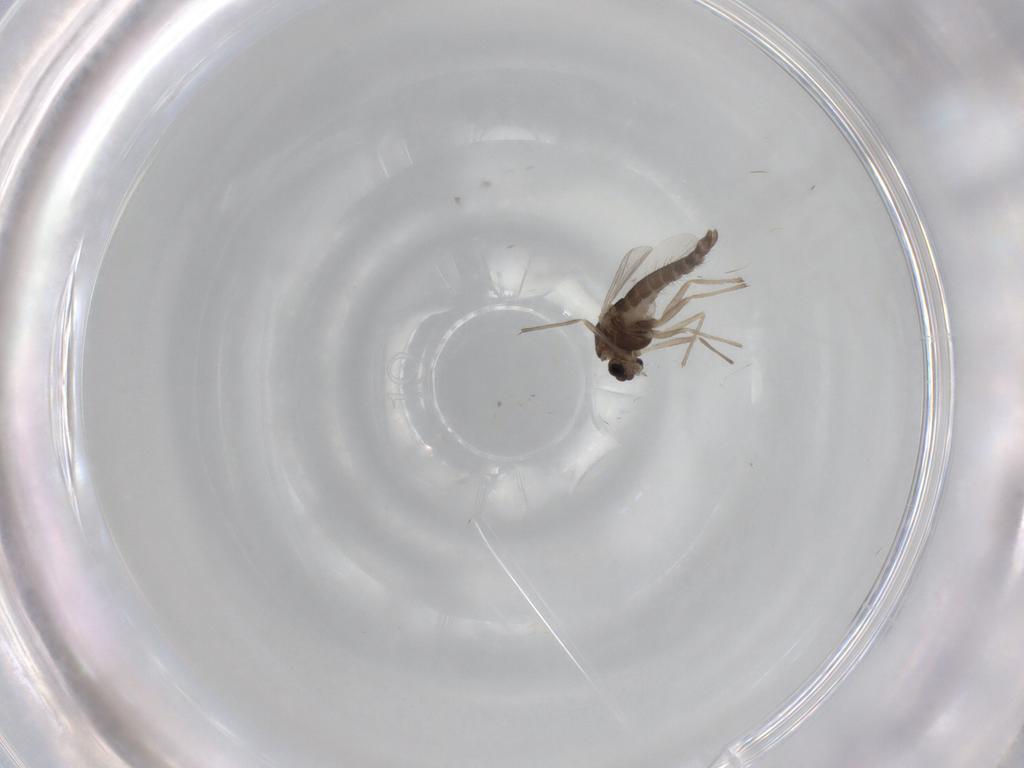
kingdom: Animalia
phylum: Arthropoda
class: Insecta
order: Diptera
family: Chironomidae
